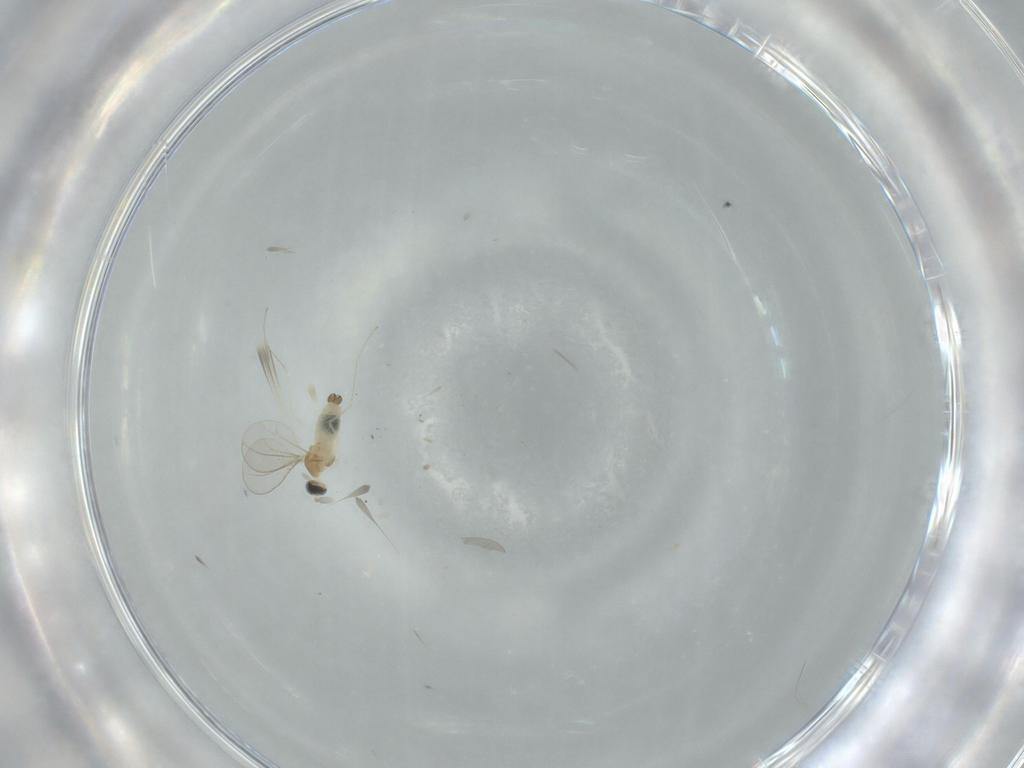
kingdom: Animalia
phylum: Arthropoda
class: Insecta
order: Diptera
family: Cecidomyiidae
